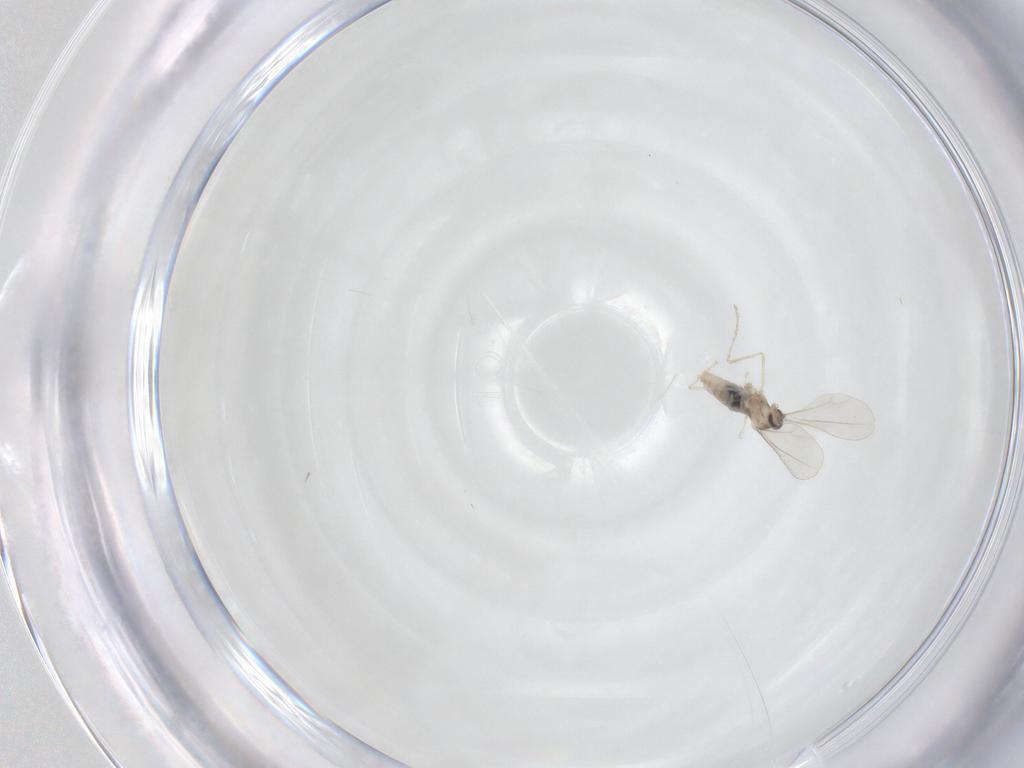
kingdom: Animalia
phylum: Arthropoda
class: Insecta
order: Diptera
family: Cecidomyiidae
